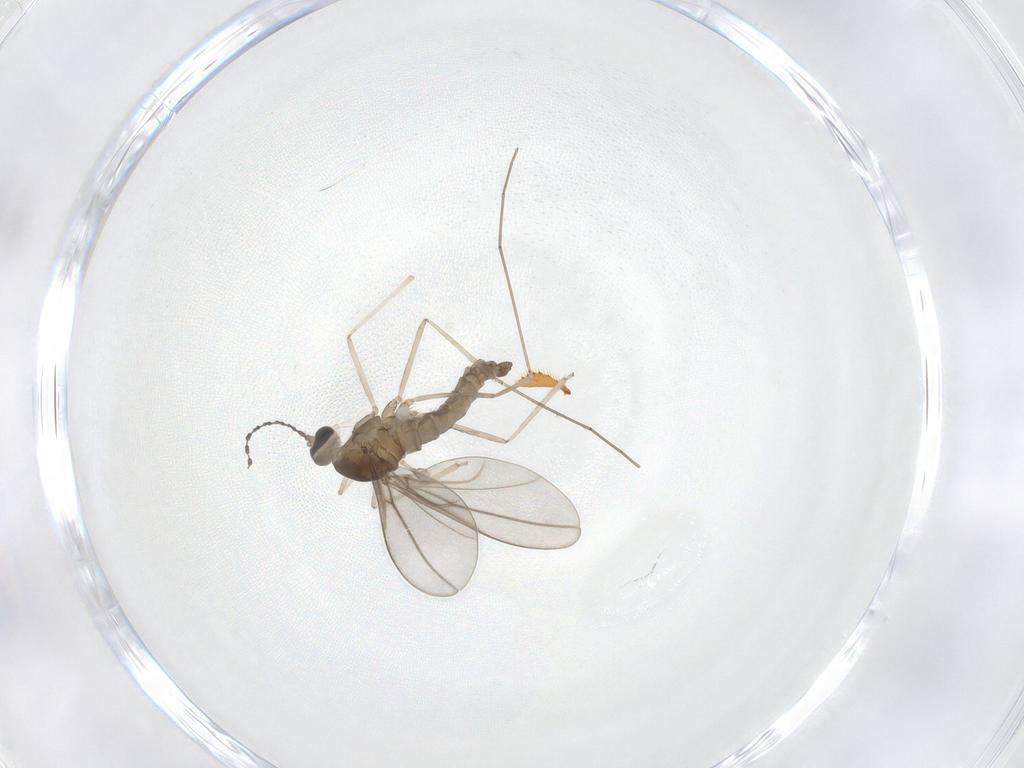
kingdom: Animalia
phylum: Arthropoda
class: Insecta
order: Diptera
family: Cecidomyiidae
